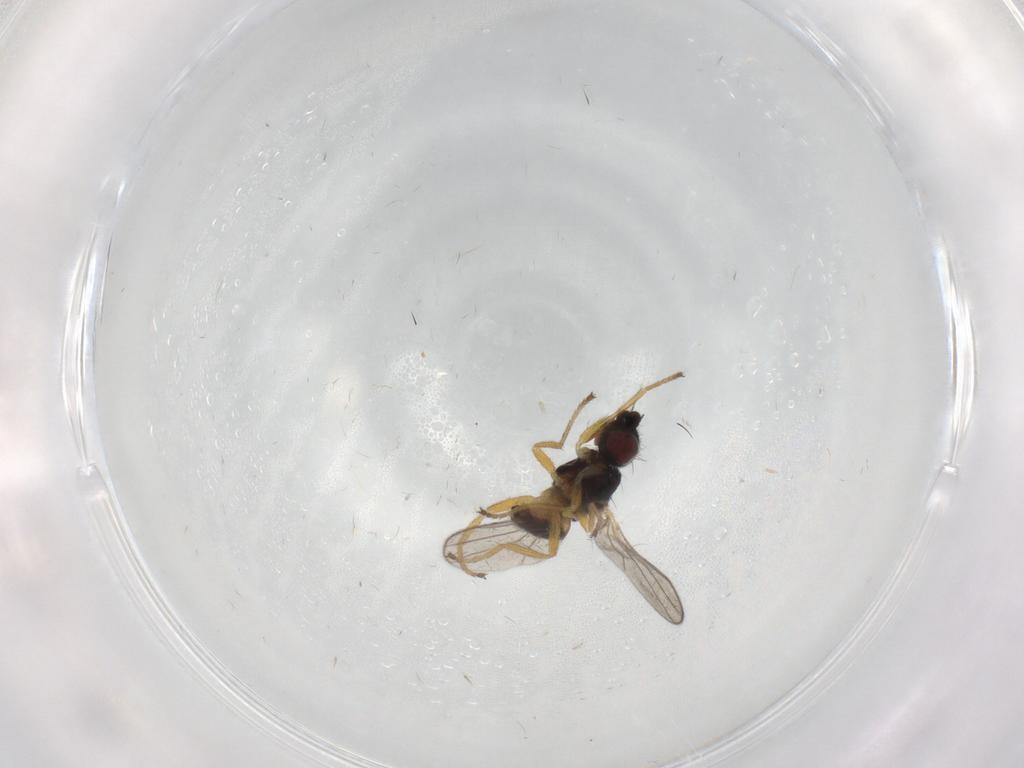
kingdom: Animalia
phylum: Arthropoda
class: Insecta
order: Diptera
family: Chloropidae
